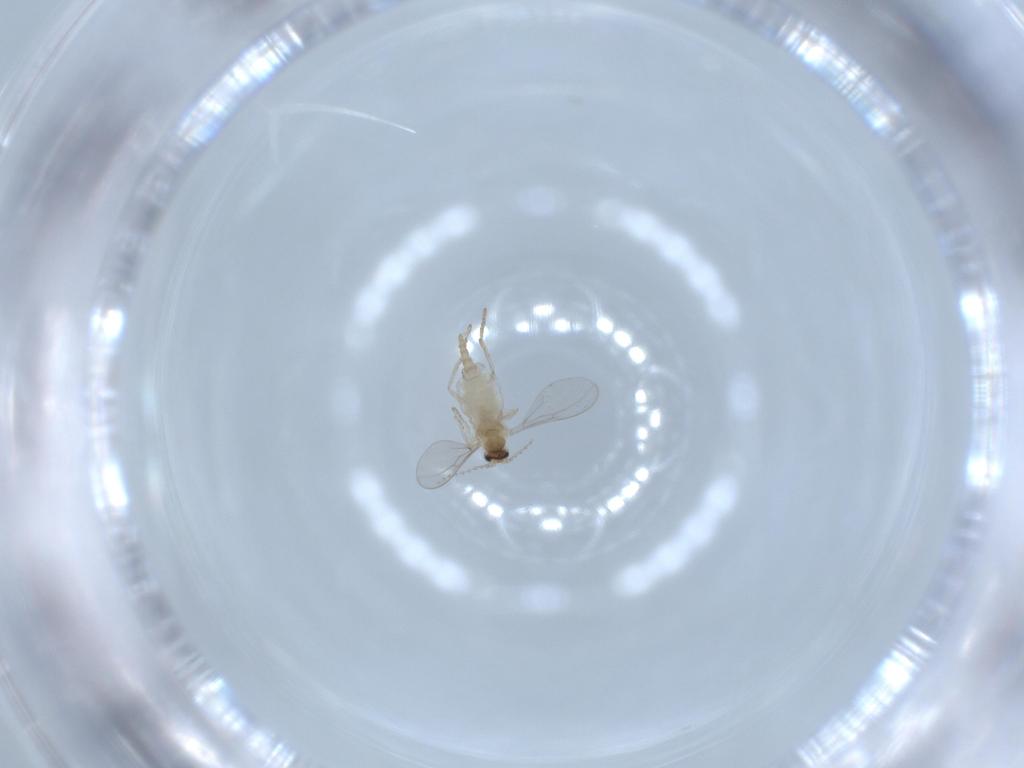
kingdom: Animalia
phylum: Arthropoda
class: Insecta
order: Diptera
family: Cecidomyiidae
